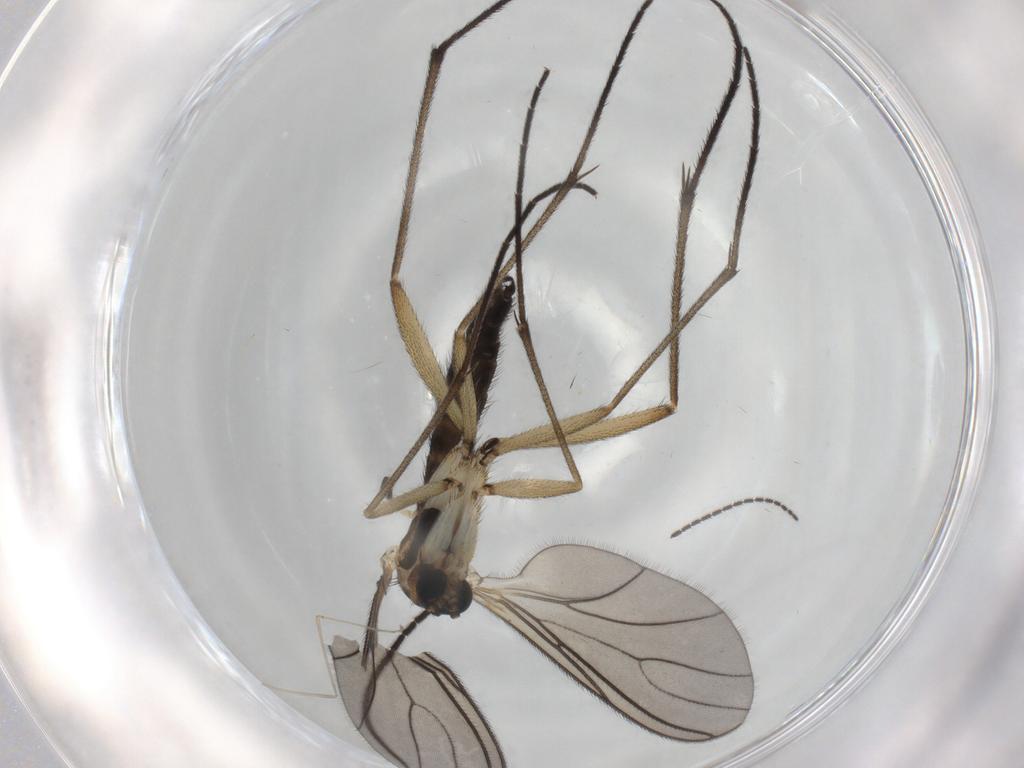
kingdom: Animalia
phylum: Arthropoda
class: Insecta
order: Diptera
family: Sciaridae
